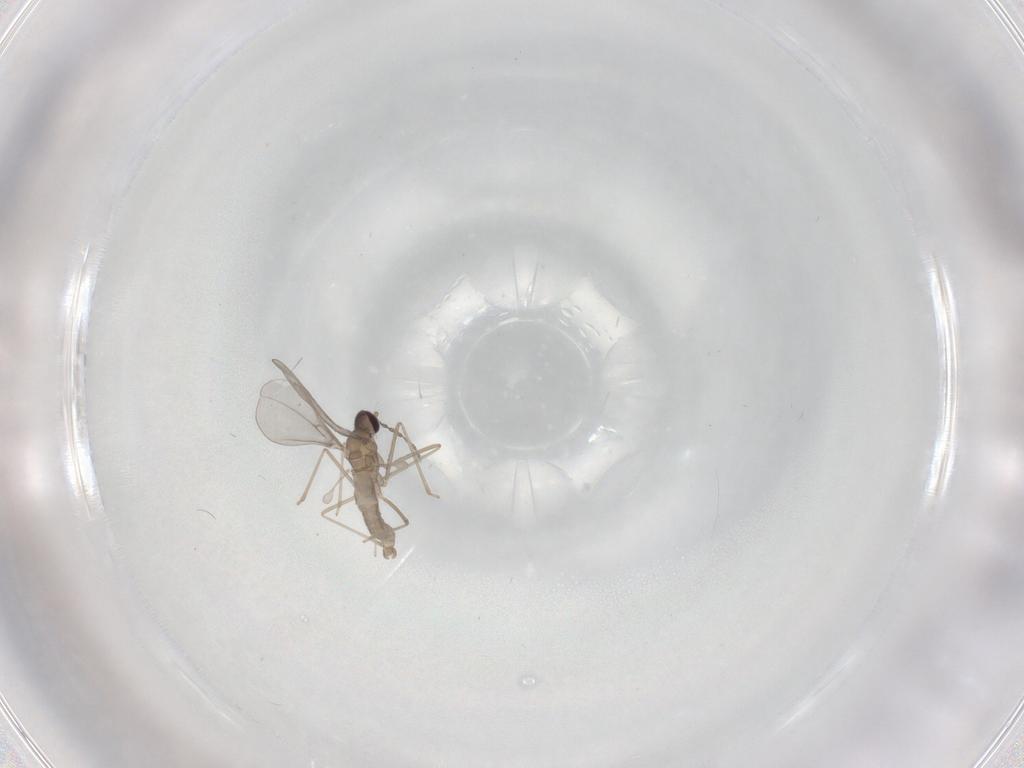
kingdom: Animalia
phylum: Arthropoda
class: Insecta
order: Diptera
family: Cecidomyiidae
